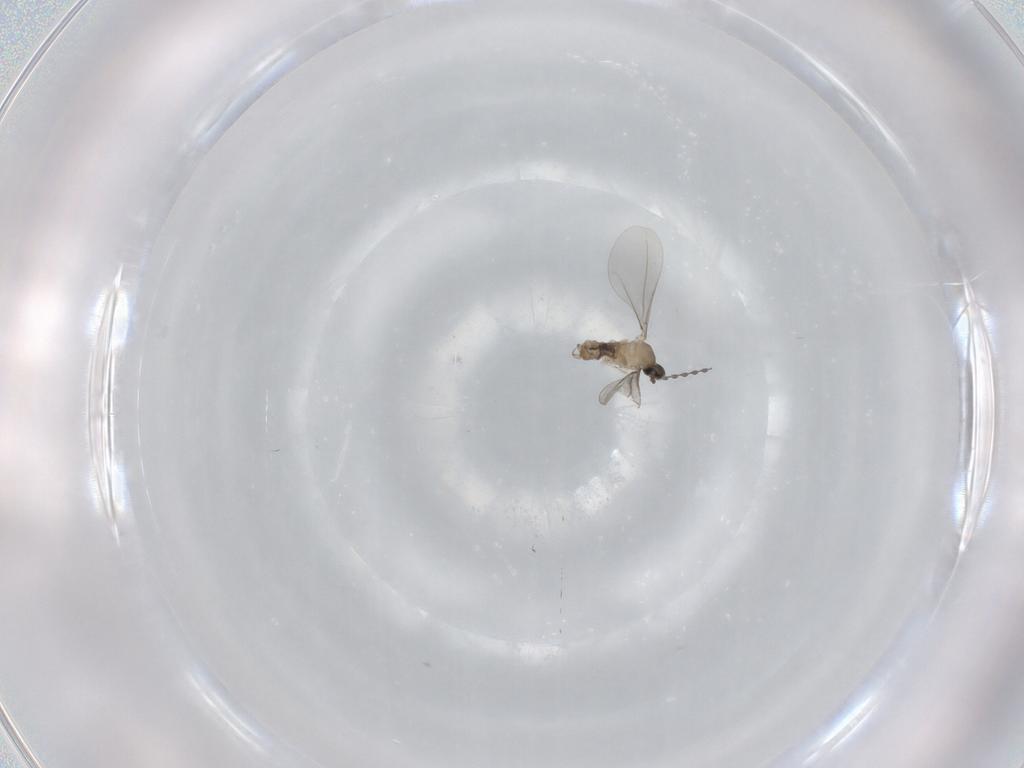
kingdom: Animalia
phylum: Arthropoda
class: Insecta
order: Diptera
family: Cecidomyiidae
